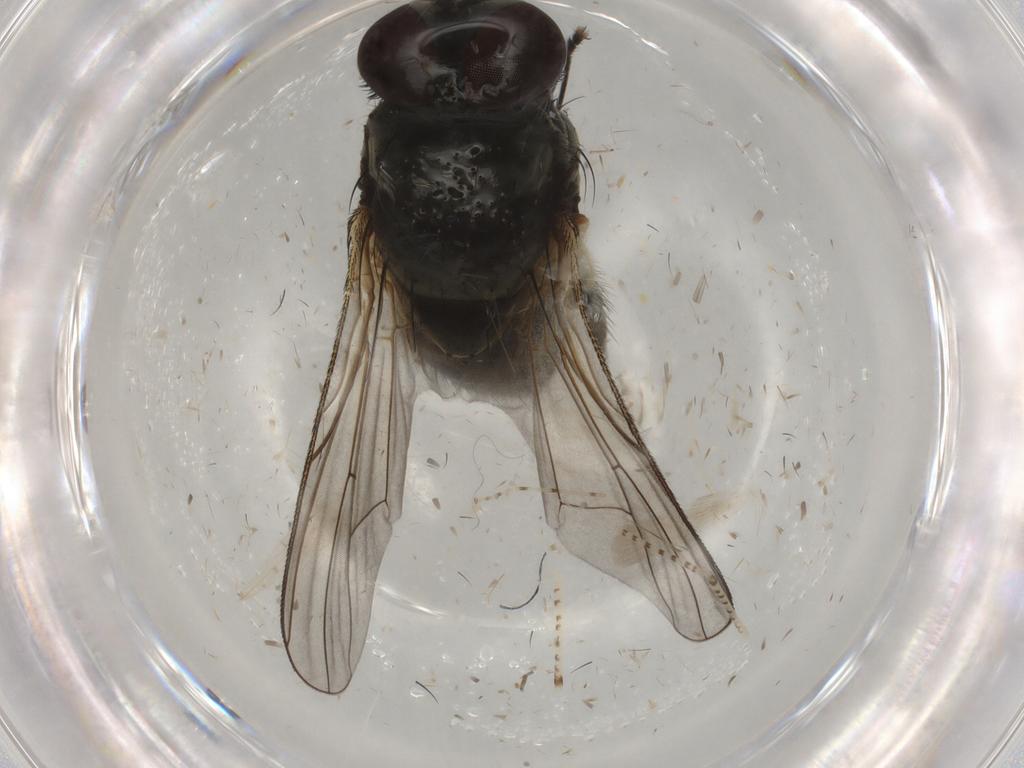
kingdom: Animalia
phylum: Arthropoda
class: Insecta
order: Diptera
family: Muscidae
